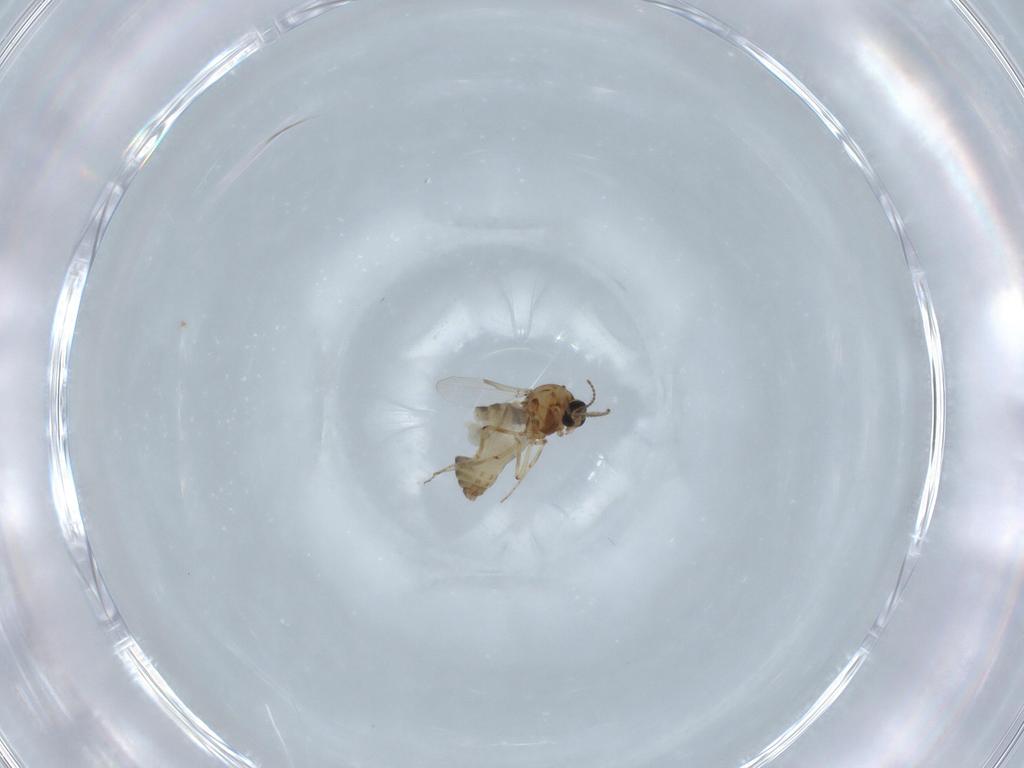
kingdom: Animalia
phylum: Arthropoda
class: Insecta
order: Diptera
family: Ceratopogonidae
